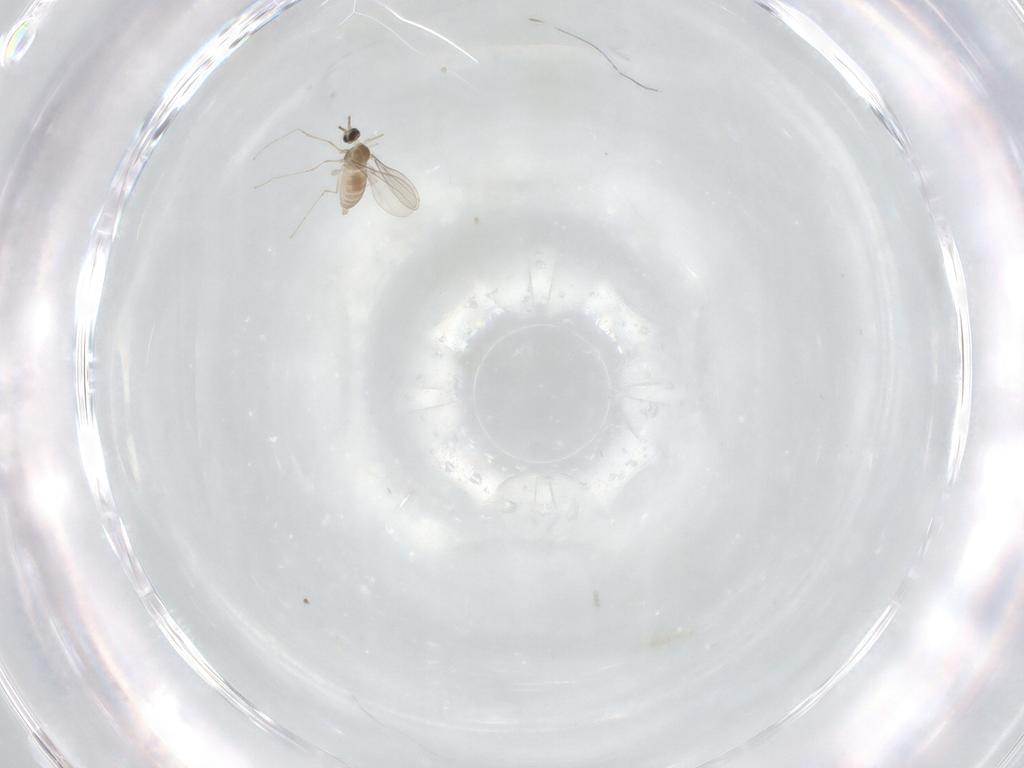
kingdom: Animalia
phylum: Arthropoda
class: Insecta
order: Diptera
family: Cecidomyiidae
